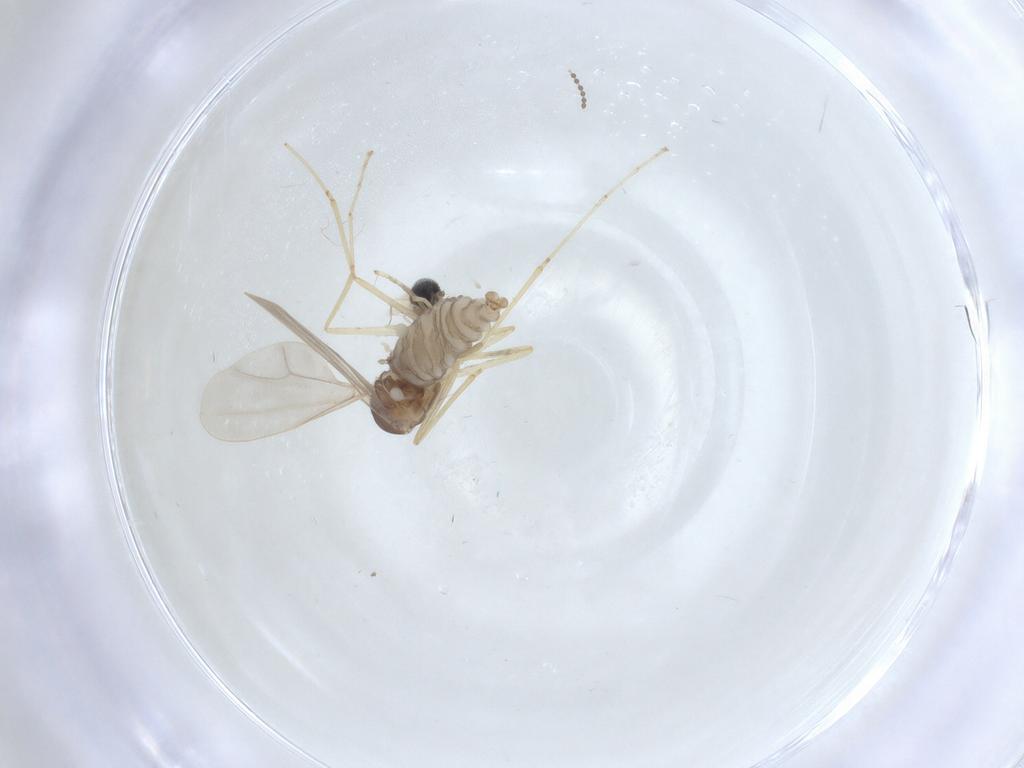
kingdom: Animalia
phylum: Arthropoda
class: Insecta
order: Diptera
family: Cecidomyiidae
